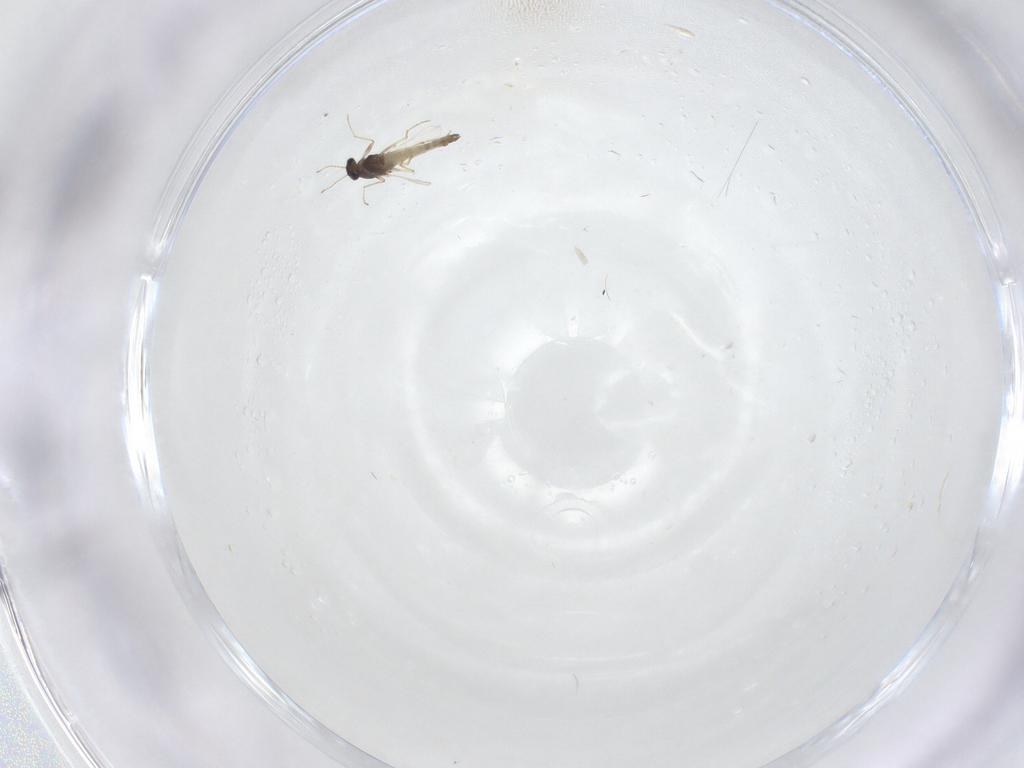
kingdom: Animalia
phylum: Arthropoda
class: Insecta
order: Diptera
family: Chironomidae
